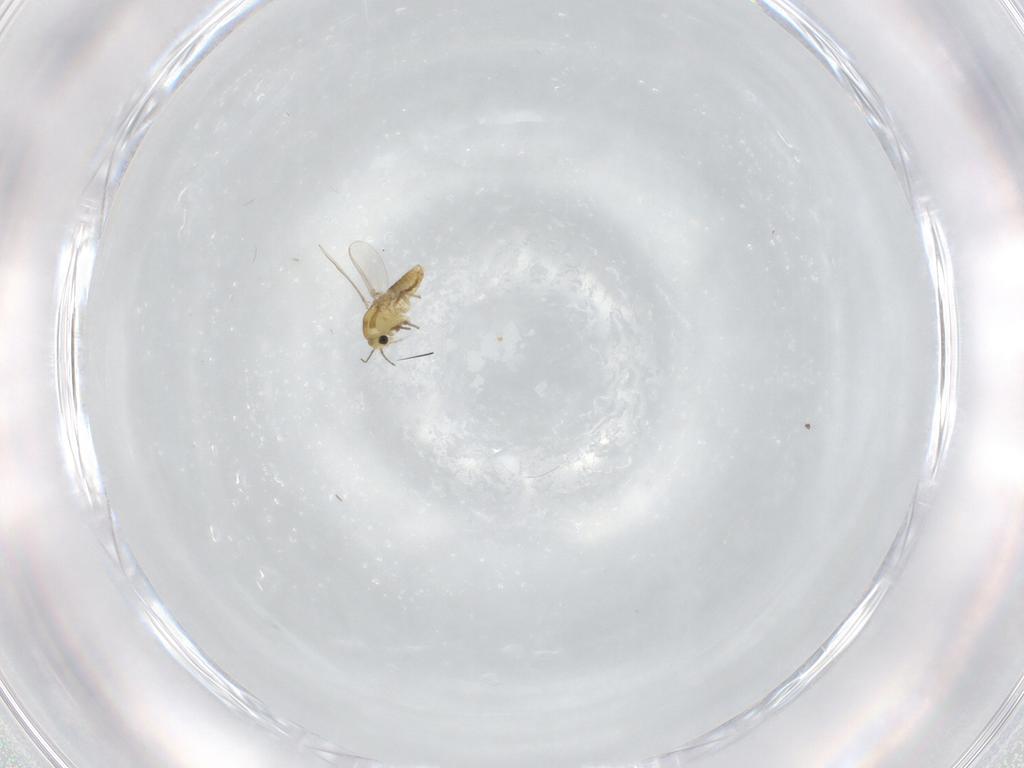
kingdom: Animalia
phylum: Arthropoda
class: Insecta
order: Diptera
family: Chironomidae
